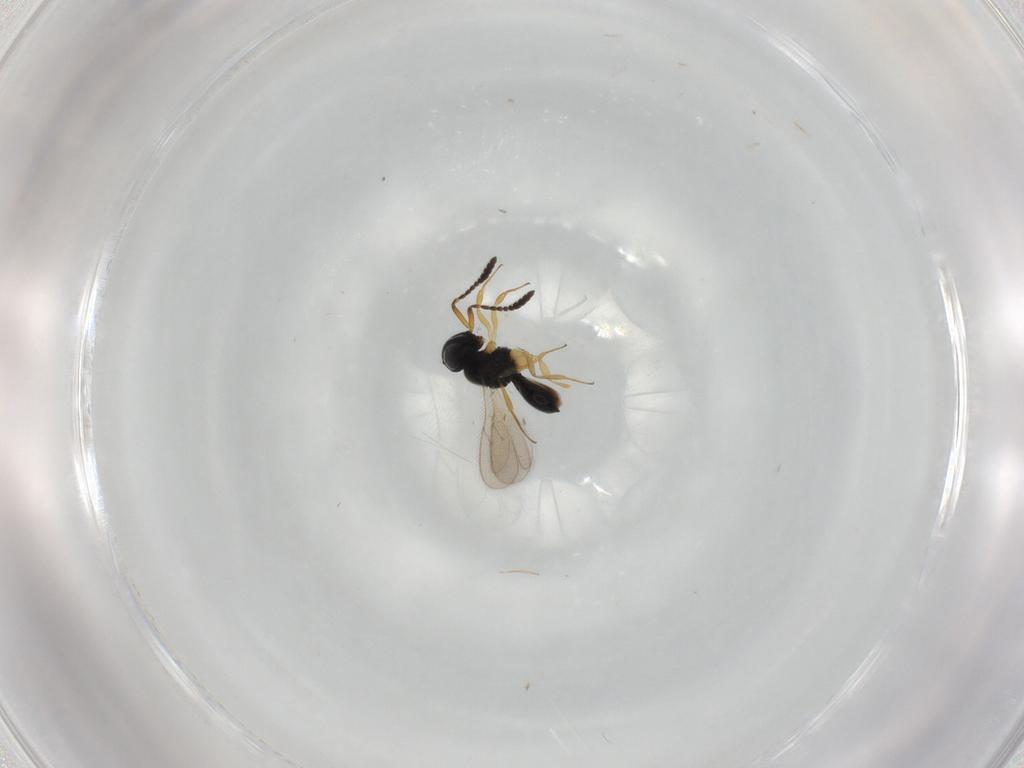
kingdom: Animalia
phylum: Arthropoda
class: Insecta
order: Hymenoptera
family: Scelionidae
